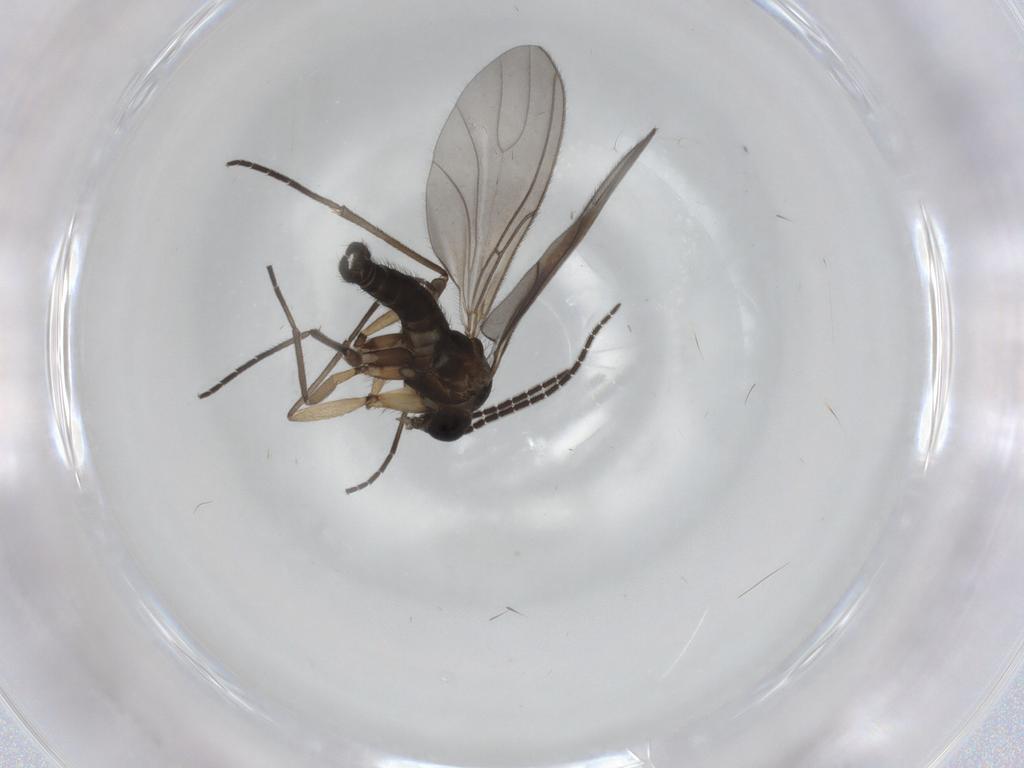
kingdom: Animalia
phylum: Arthropoda
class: Insecta
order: Diptera
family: Sciaridae
